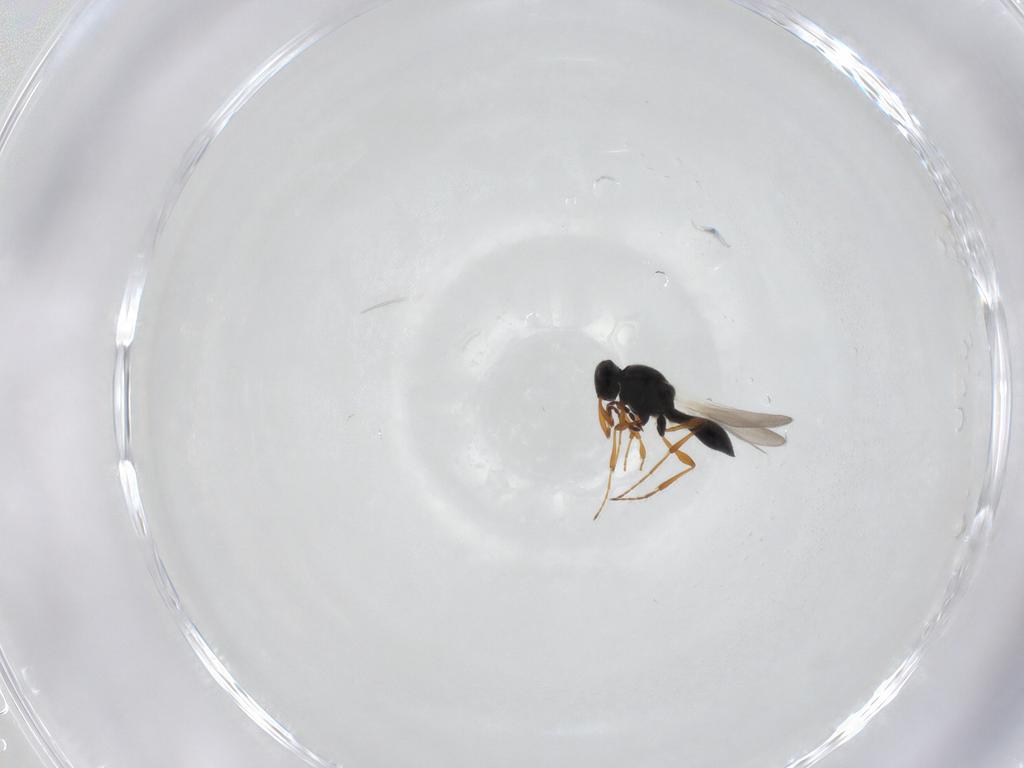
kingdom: Animalia
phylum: Arthropoda
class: Insecta
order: Hymenoptera
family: Platygastridae
